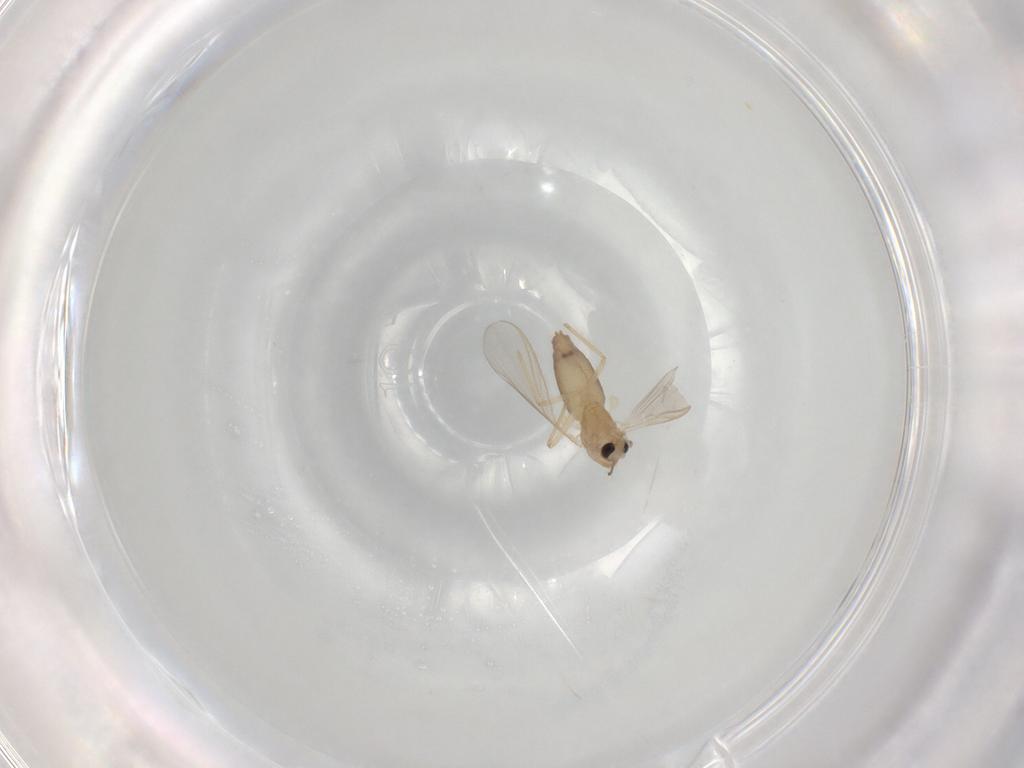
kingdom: Animalia
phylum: Arthropoda
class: Insecta
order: Diptera
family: Chironomidae
